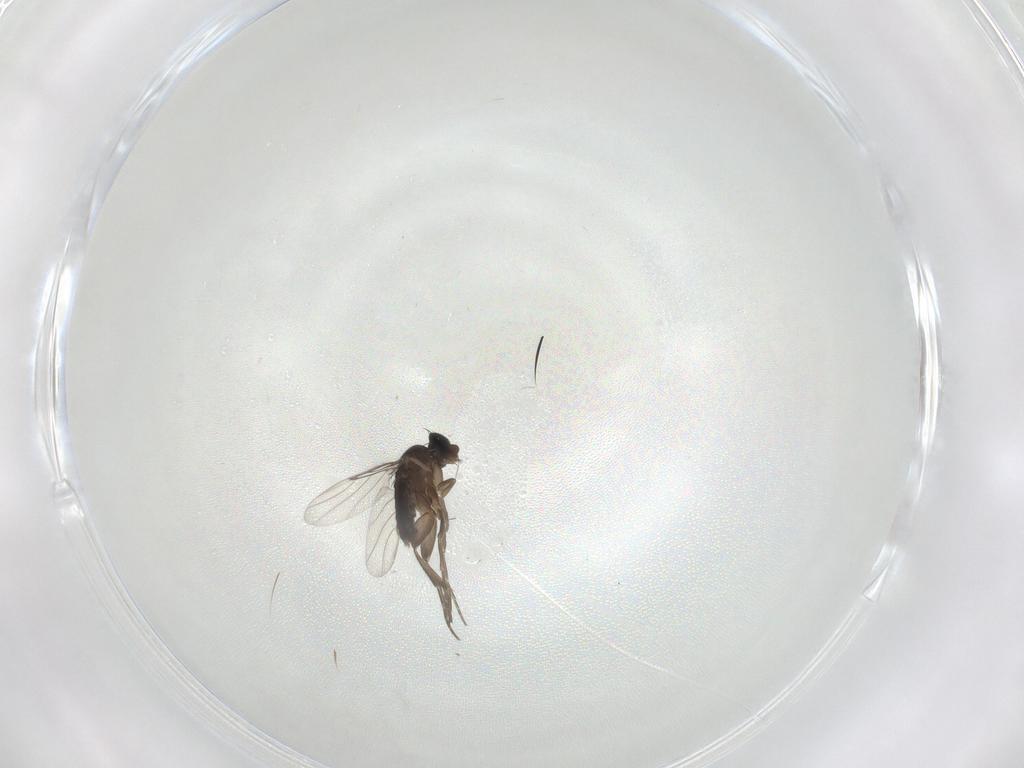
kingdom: Animalia
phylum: Arthropoda
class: Insecta
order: Diptera
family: Phoridae
